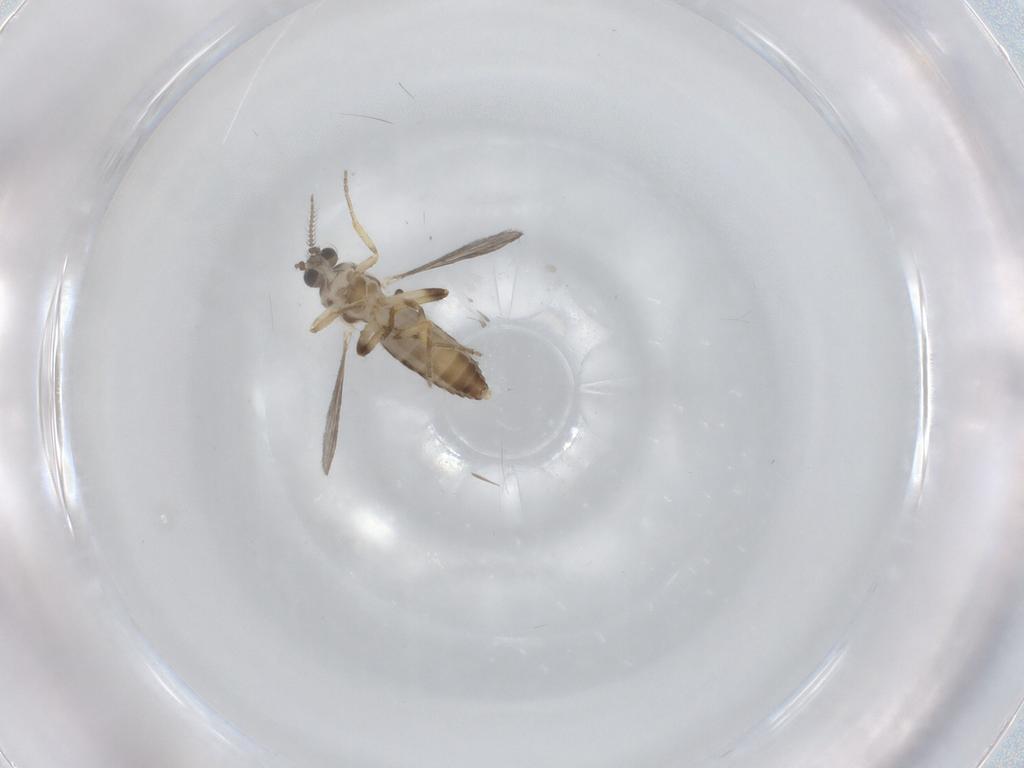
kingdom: Animalia
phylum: Arthropoda
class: Insecta
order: Diptera
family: Ceratopogonidae
